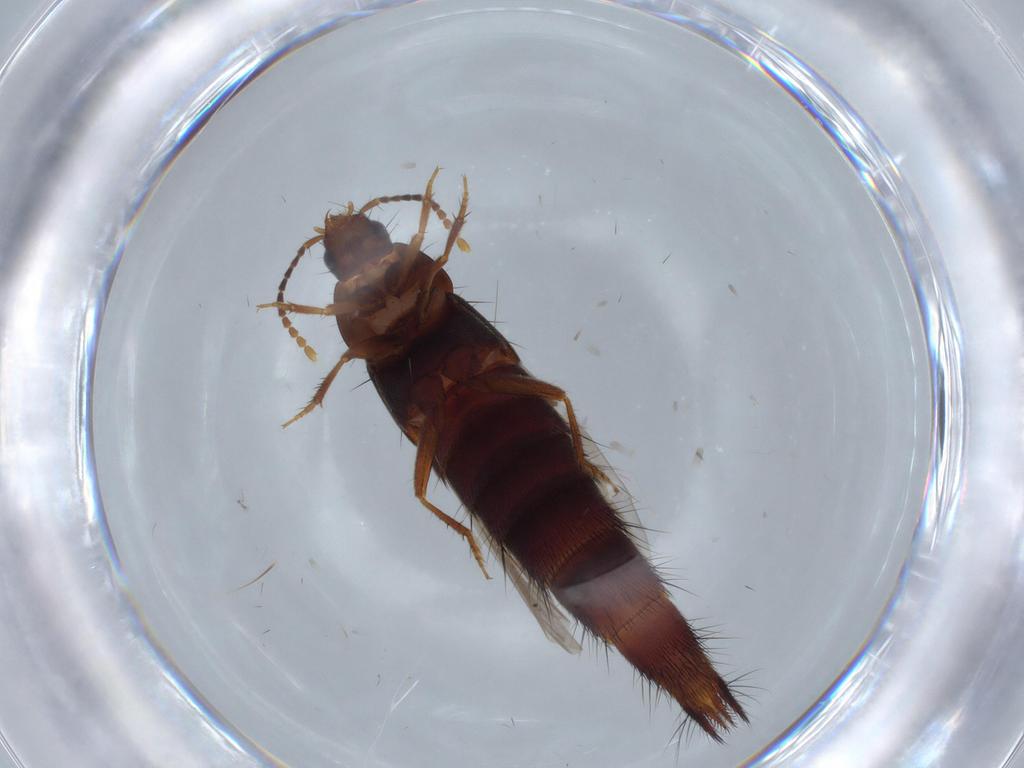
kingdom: Animalia
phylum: Arthropoda
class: Insecta
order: Coleoptera
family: Staphylinidae
